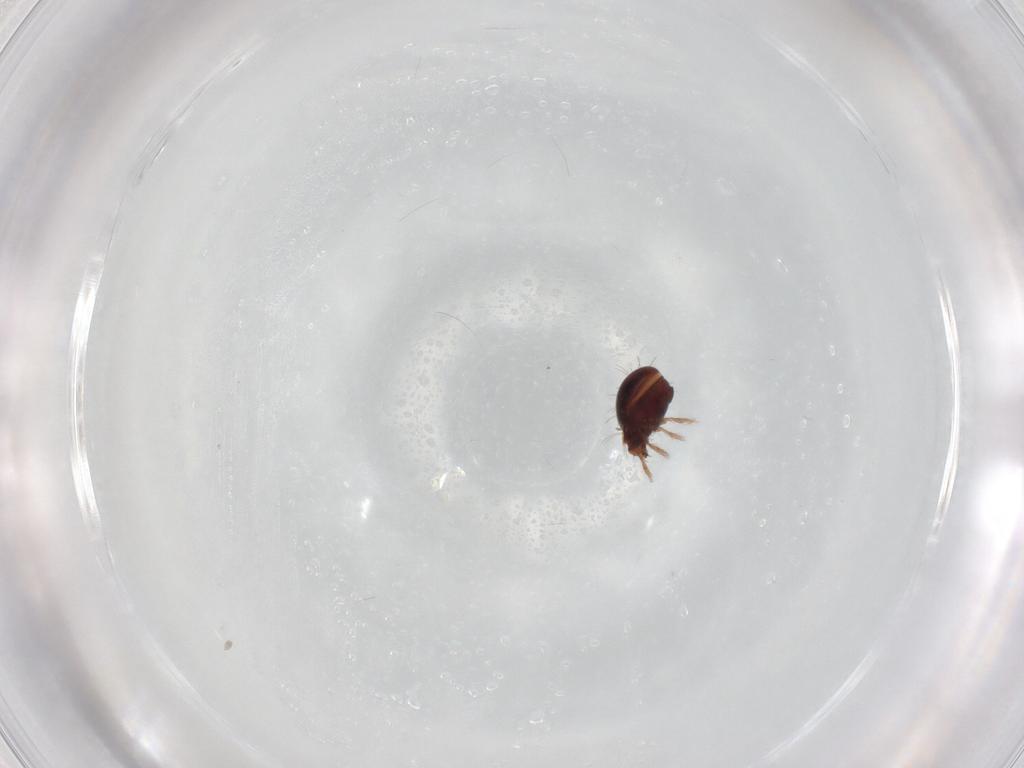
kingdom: Animalia
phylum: Arthropoda
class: Arachnida
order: Sarcoptiformes
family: Humerobatidae
